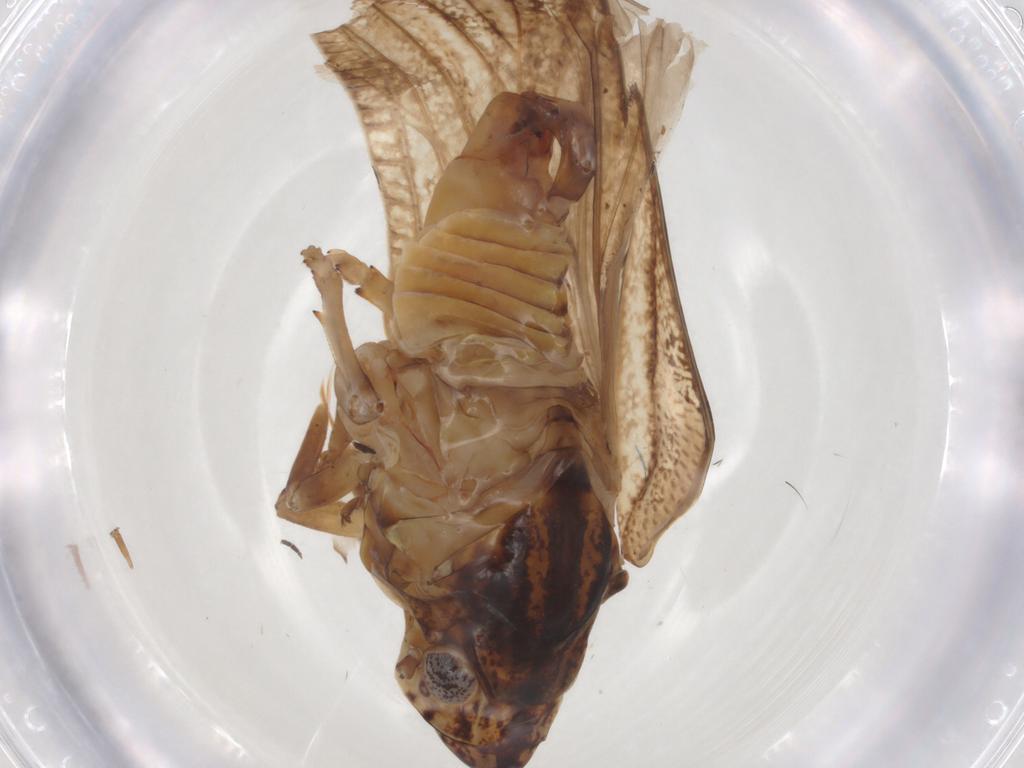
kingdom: Animalia
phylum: Arthropoda
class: Insecta
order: Hemiptera
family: Flatidae
